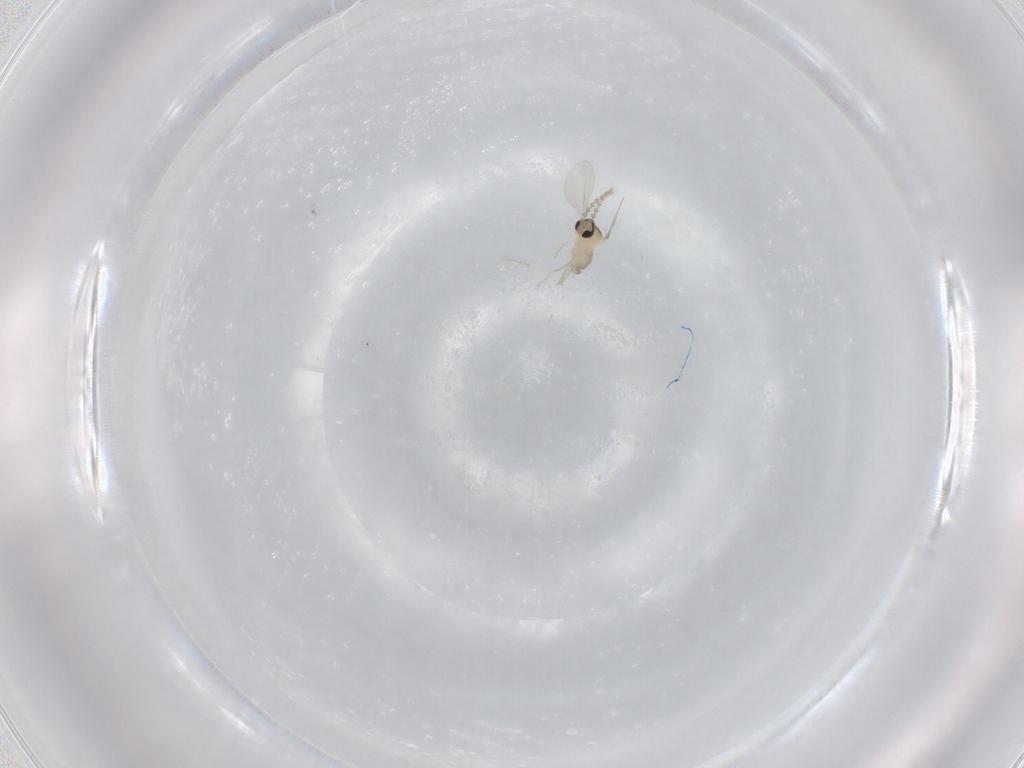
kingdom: Animalia
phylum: Arthropoda
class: Insecta
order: Diptera
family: Cecidomyiidae
